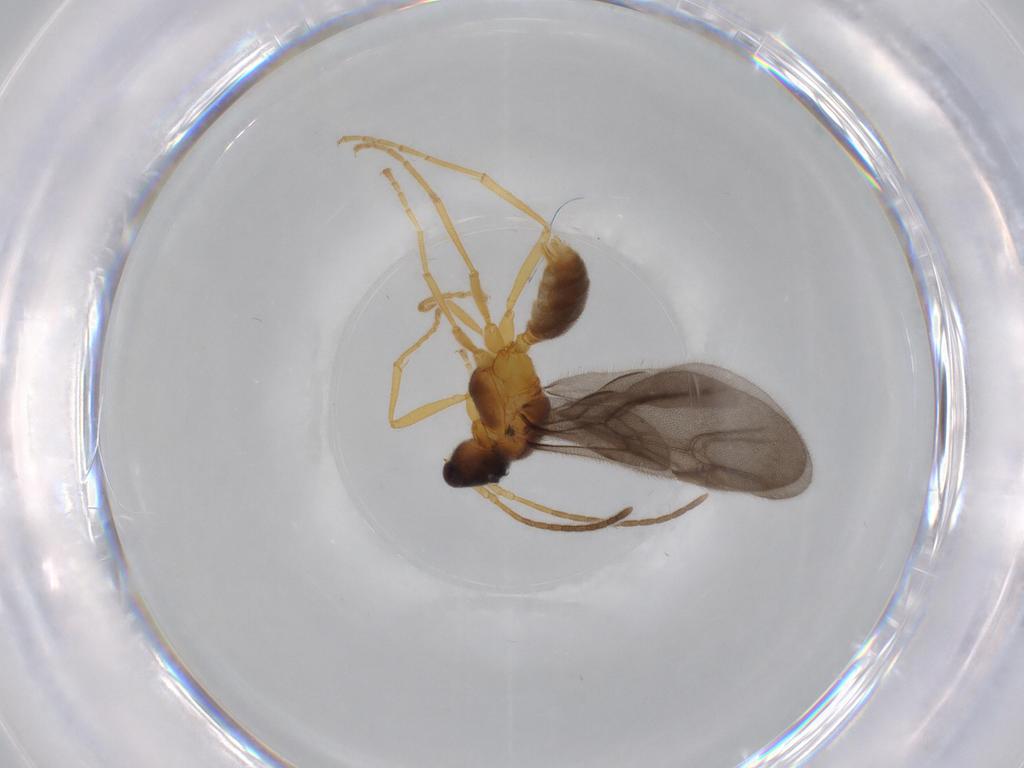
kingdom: Animalia
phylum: Arthropoda
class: Insecta
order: Hymenoptera
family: Formicidae
